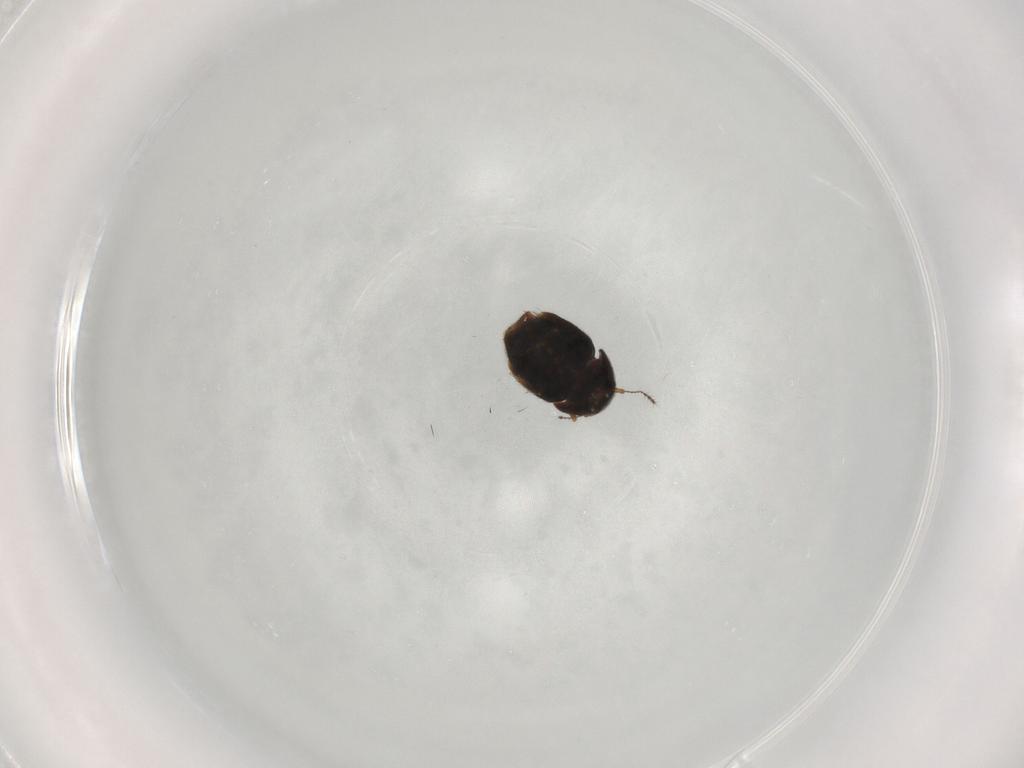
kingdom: Animalia
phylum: Arthropoda
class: Insecta
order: Coleoptera
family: Ptiliidae
